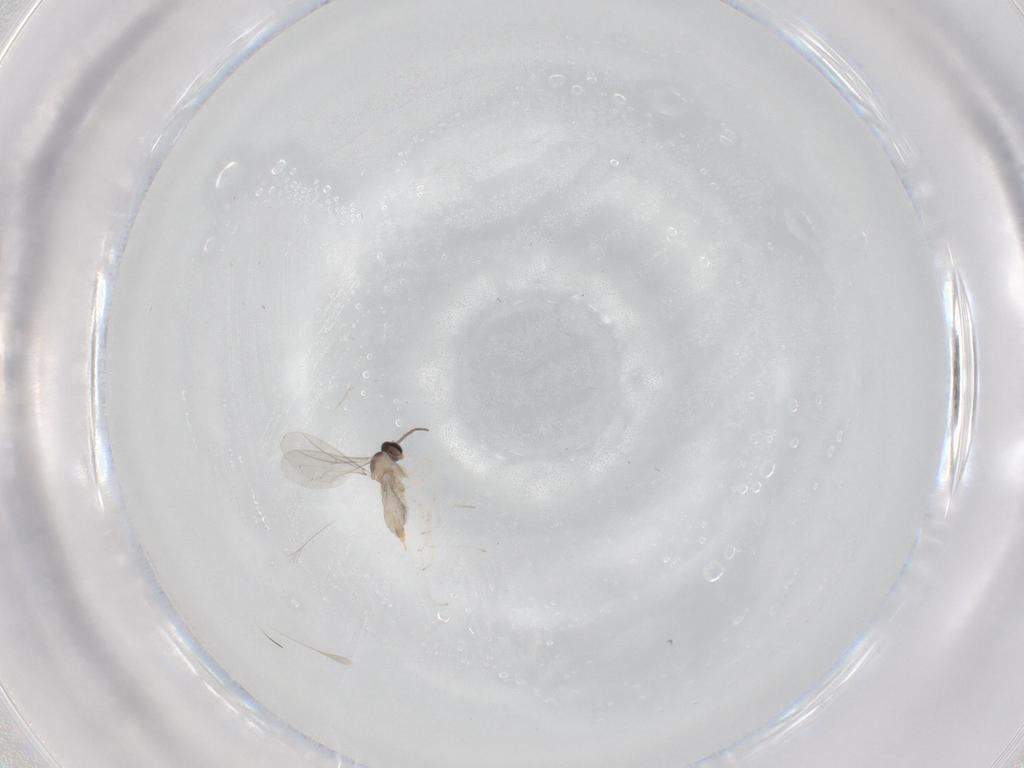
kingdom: Animalia
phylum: Arthropoda
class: Insecta
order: Diptera
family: Cecidomyiidae
